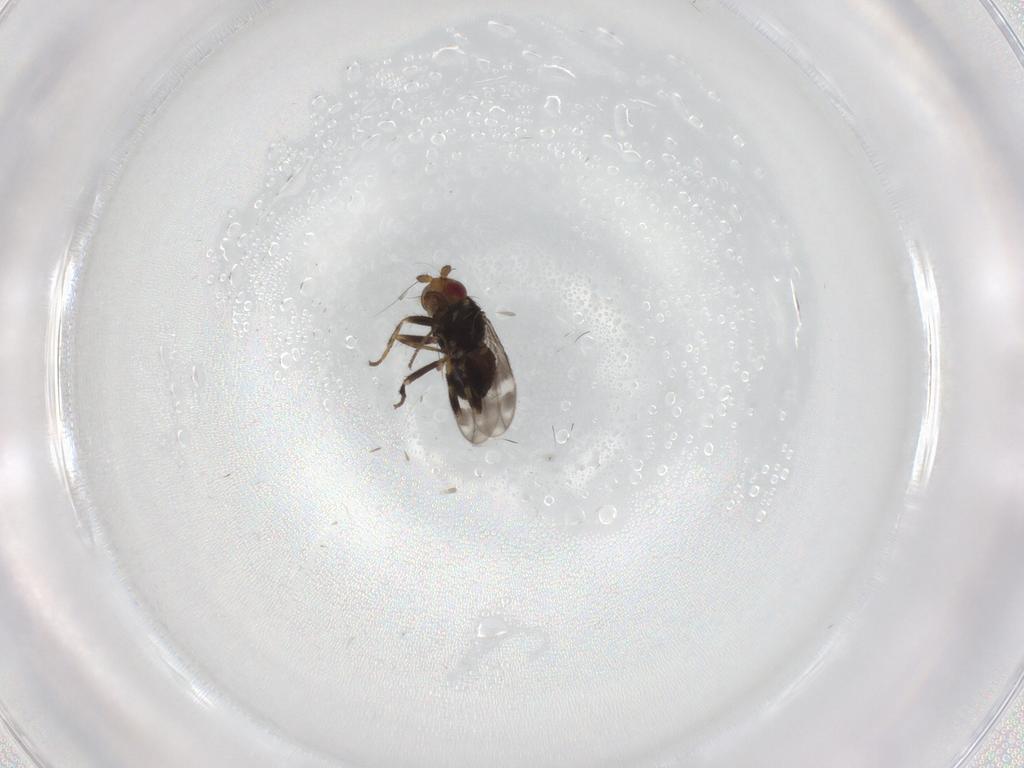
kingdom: Animalia
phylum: Arthropoda
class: Insecta
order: Diptera
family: Cecidomyiidae
